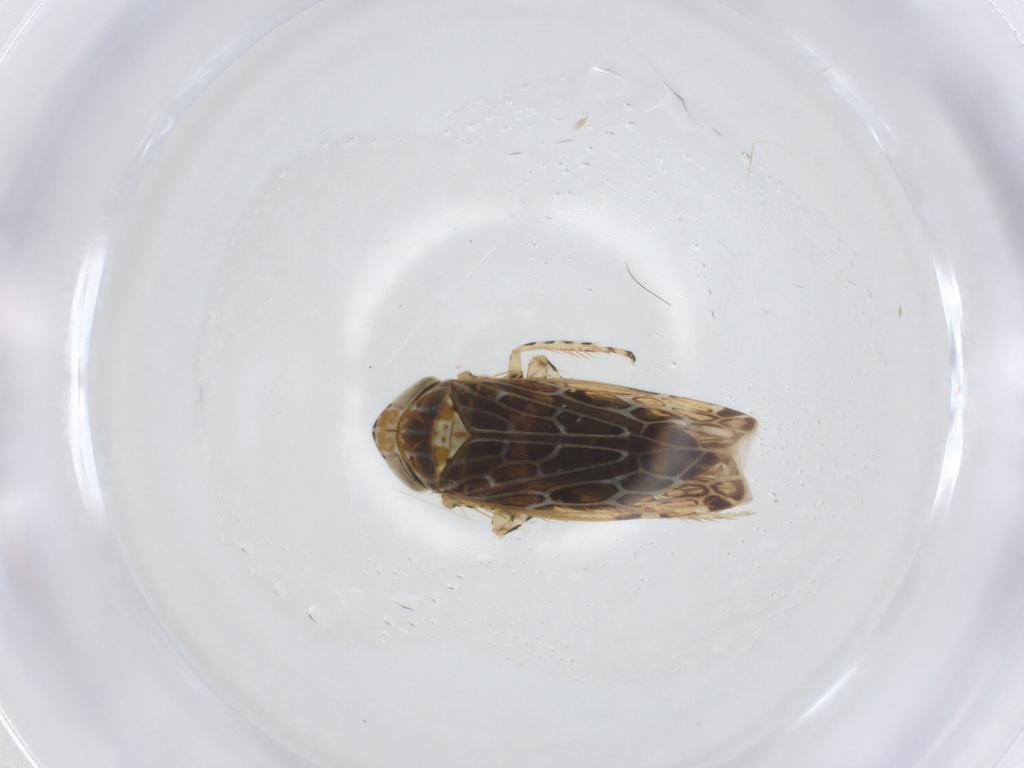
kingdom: Animalia
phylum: Arthropoda
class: Insecta
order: Hemiptera
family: Cicadellidae
